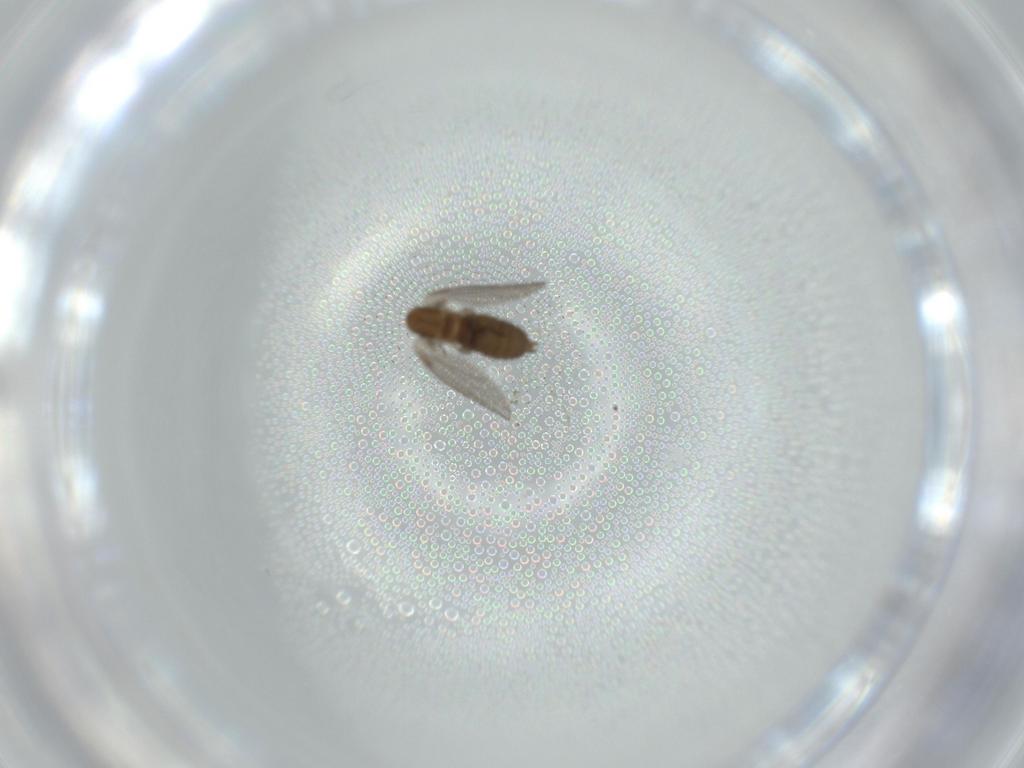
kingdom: Animalia
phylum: Arthropoda
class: Insecta
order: Diptera
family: Psychodidae
